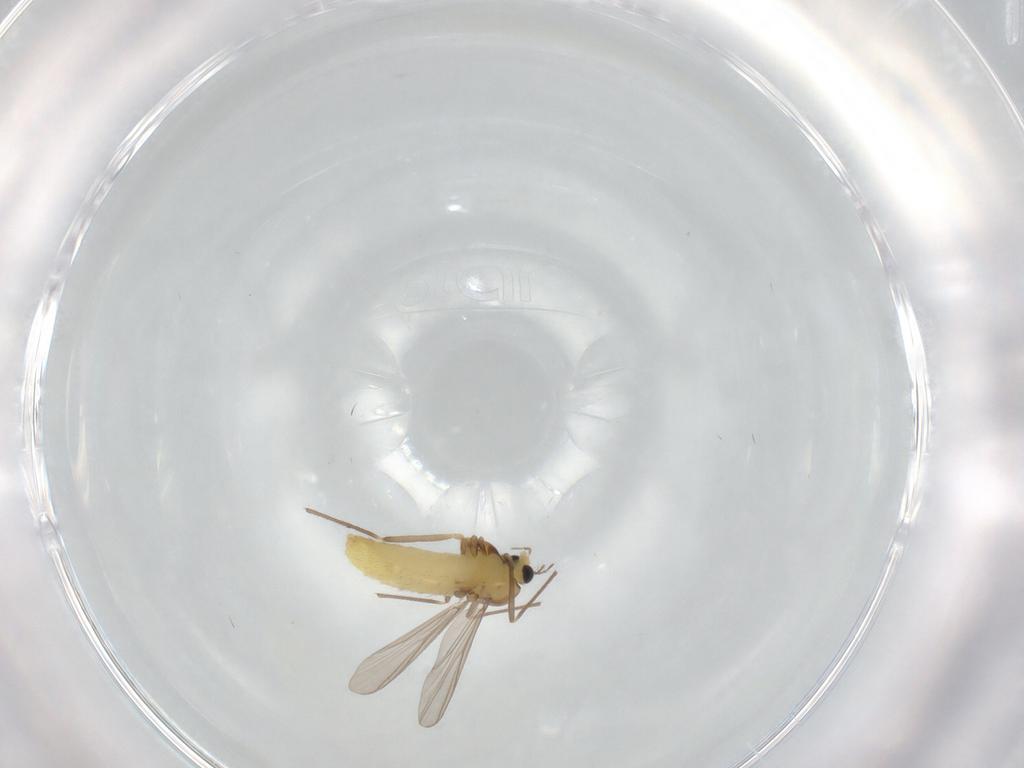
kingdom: Animalia
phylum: Arthropoda
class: Insecta
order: Diptera
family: Chironomidae
